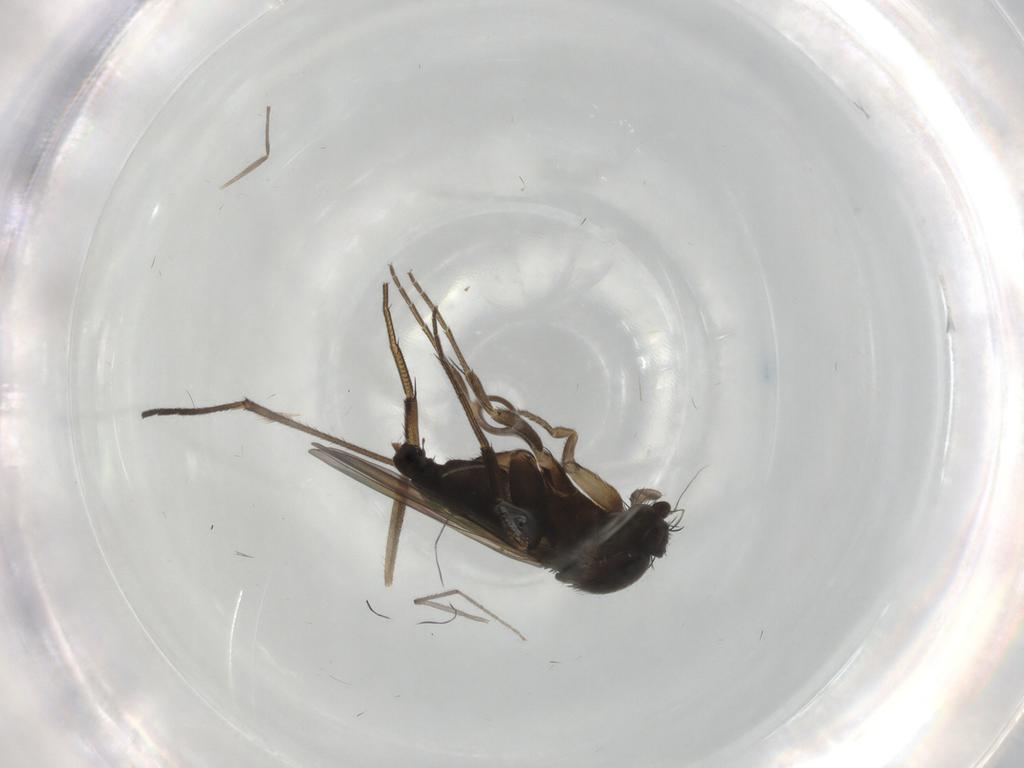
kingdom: Animalia
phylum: Arthropoda
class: Insecta
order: Diptera
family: Phoridae
